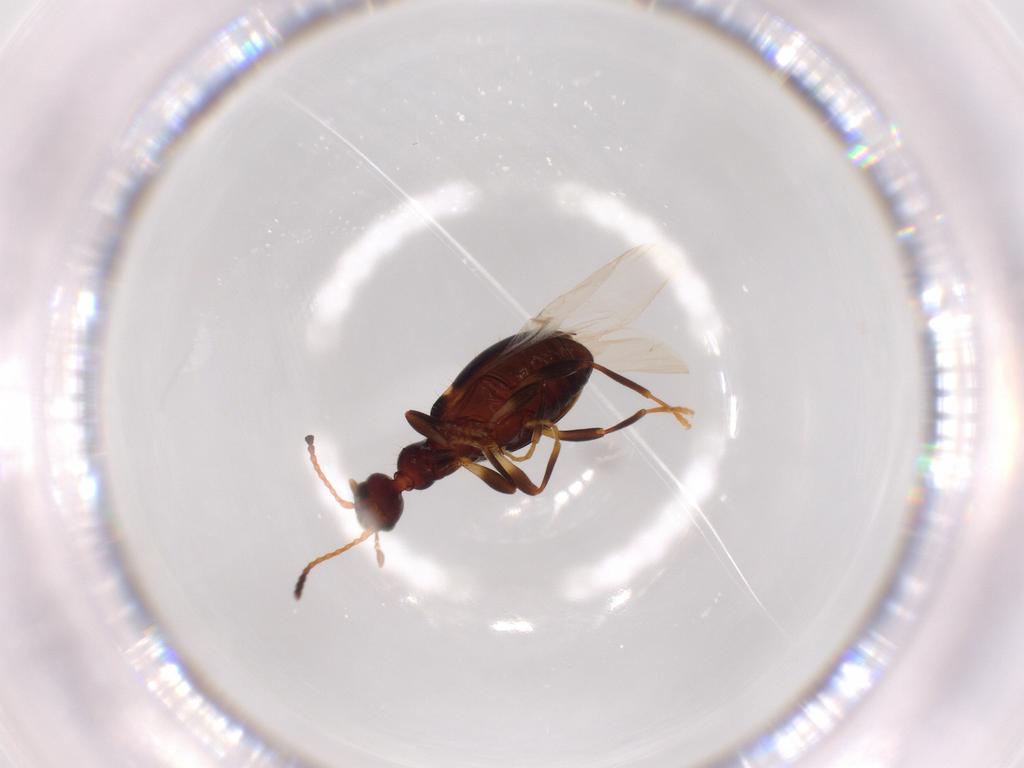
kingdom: Animalia
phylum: Arthropoda
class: Insecta
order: Coleoptera
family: Anthicidae
